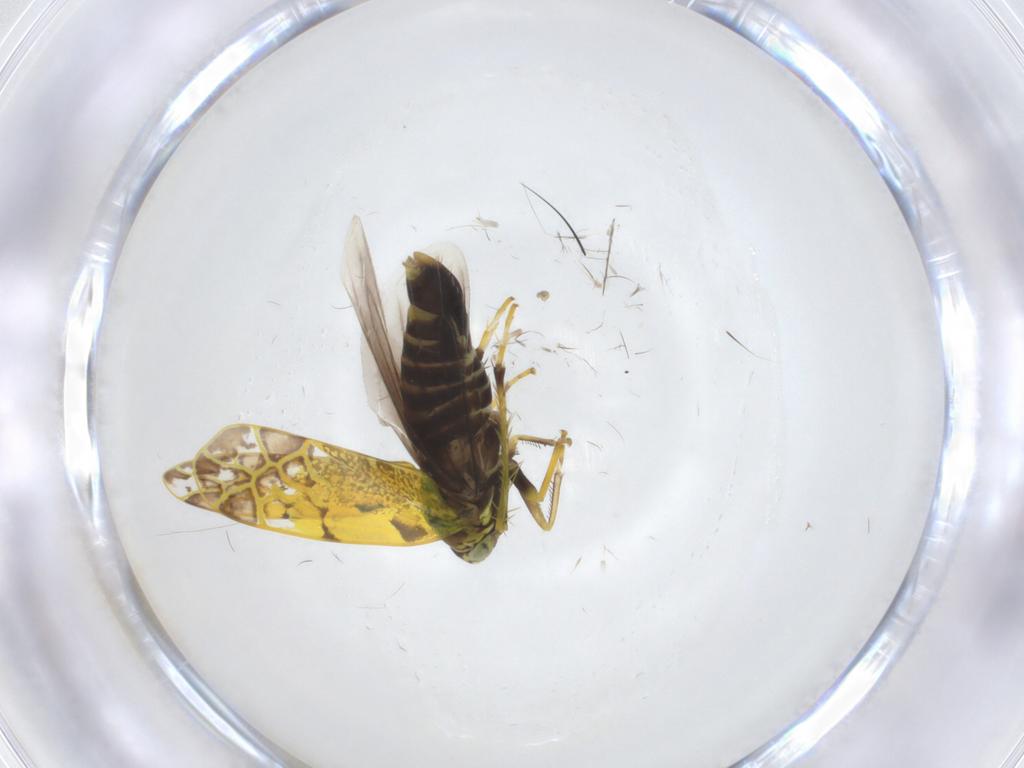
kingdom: Animalia
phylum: Arthropoda
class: Insecta
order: Hemiptera
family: Cicadellidae
